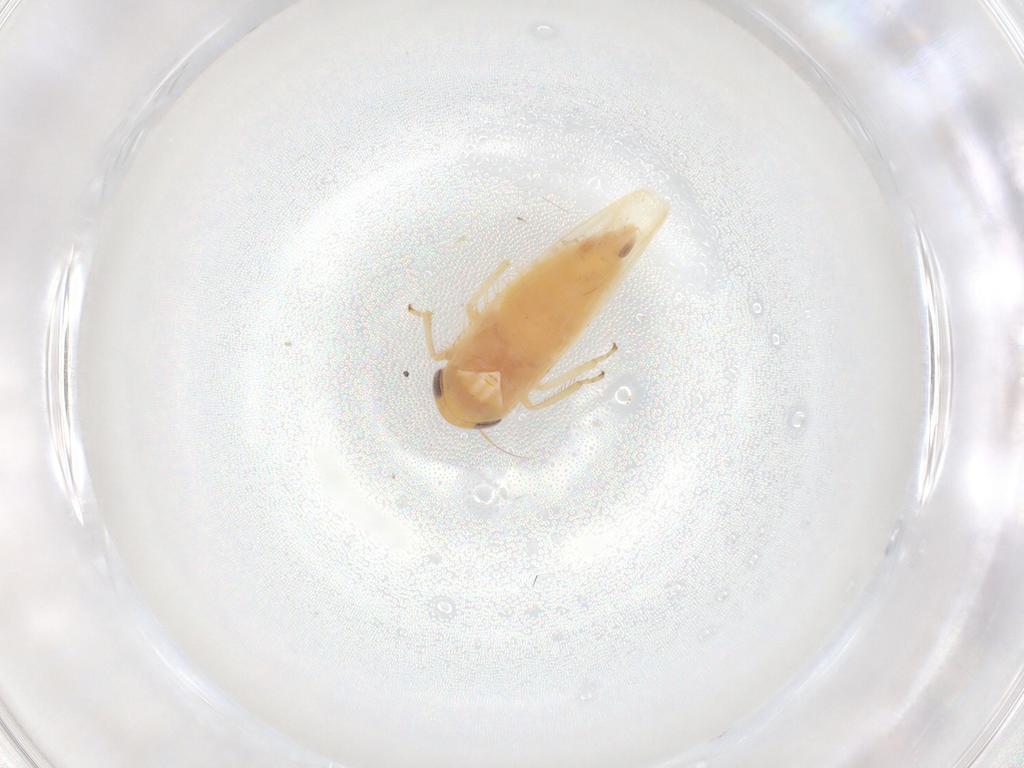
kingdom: Animalia
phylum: Arthropoda
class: Insecta
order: Hemiptera
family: Cicadellidae
